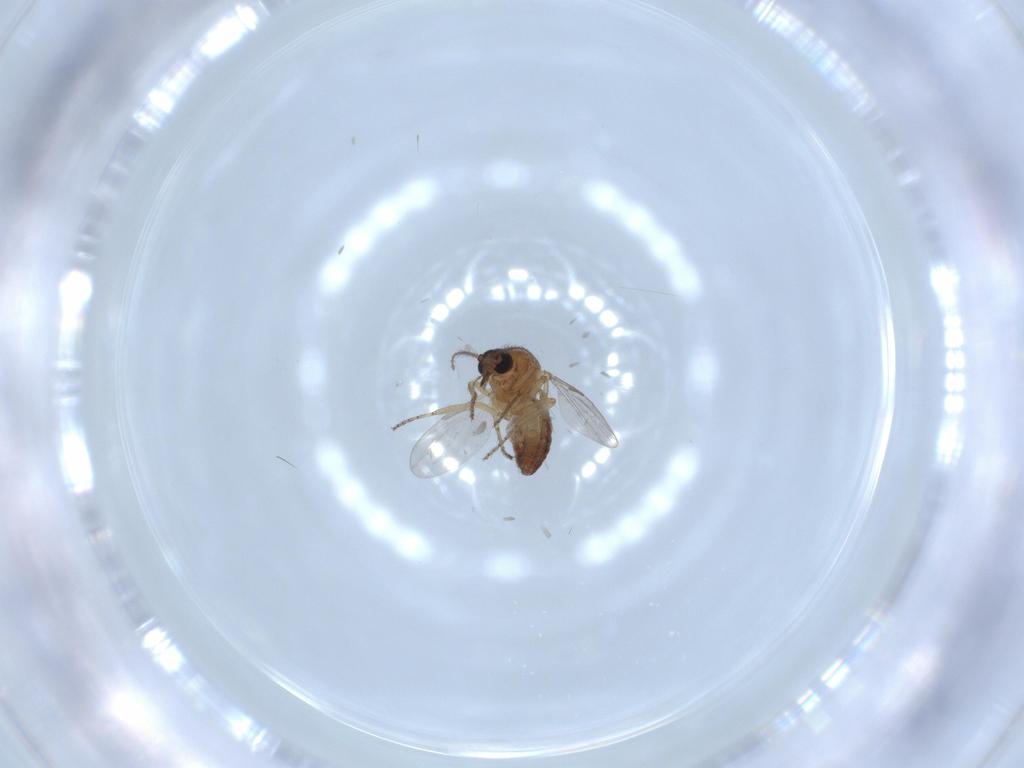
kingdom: Animalia
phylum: Arthropoda
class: Insecta
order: Diptera
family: Ceratopogonidae
